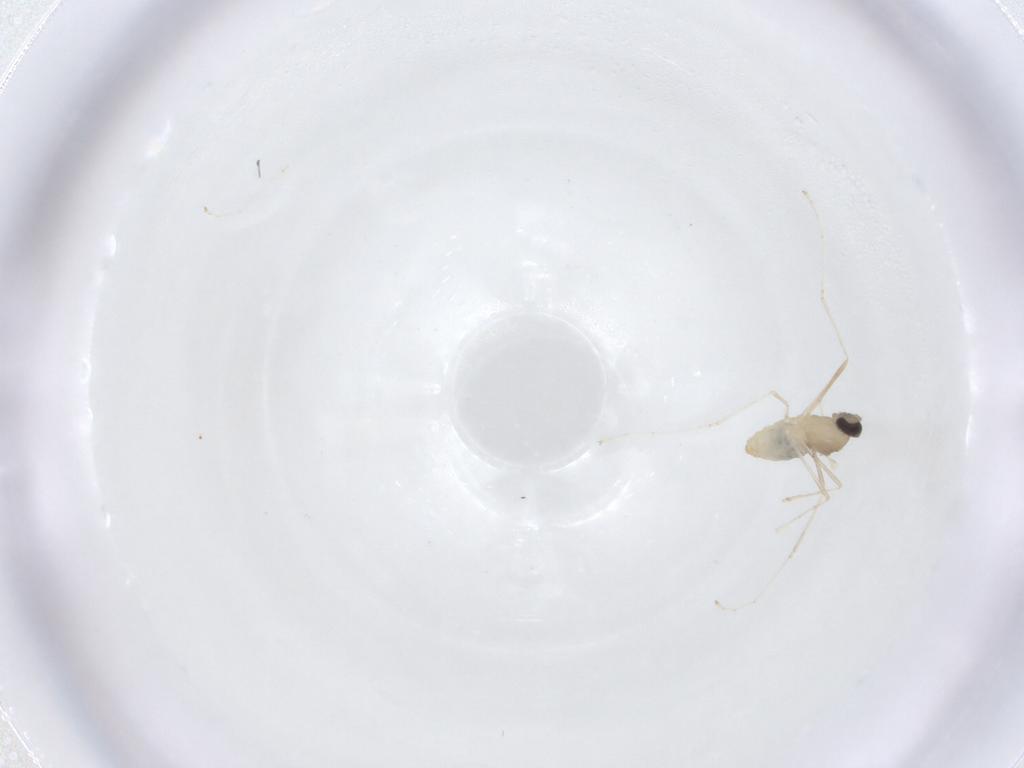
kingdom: Animalia
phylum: Arthropoda
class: Insecta
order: Diptera
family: Cecidomyiidae
